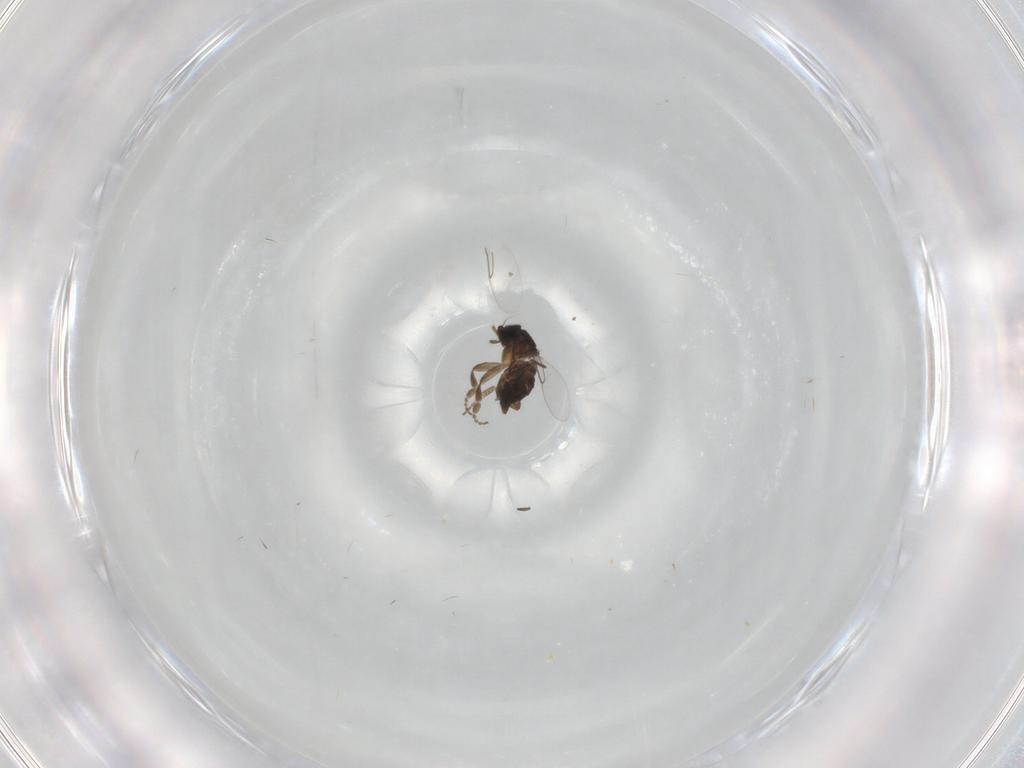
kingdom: Animalia
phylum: Arthropoda
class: Insecta
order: Diptera
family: Phoridae
